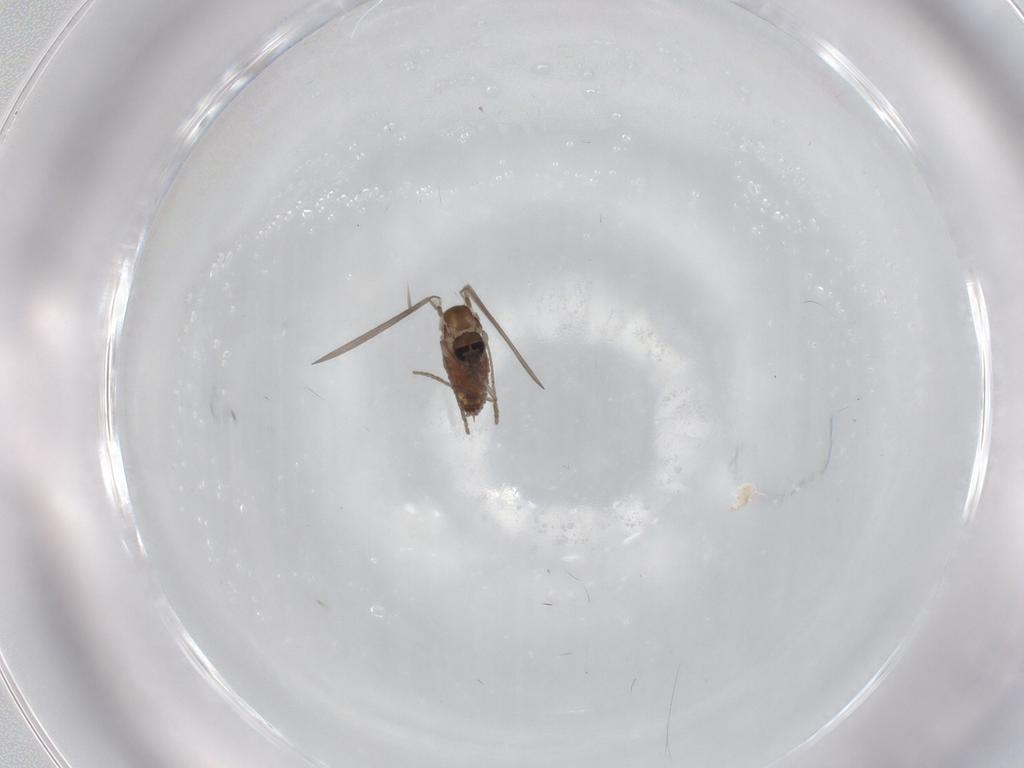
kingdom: Animalia
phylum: Arthropoda
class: Insecta
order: Diptera
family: Psychodidae
